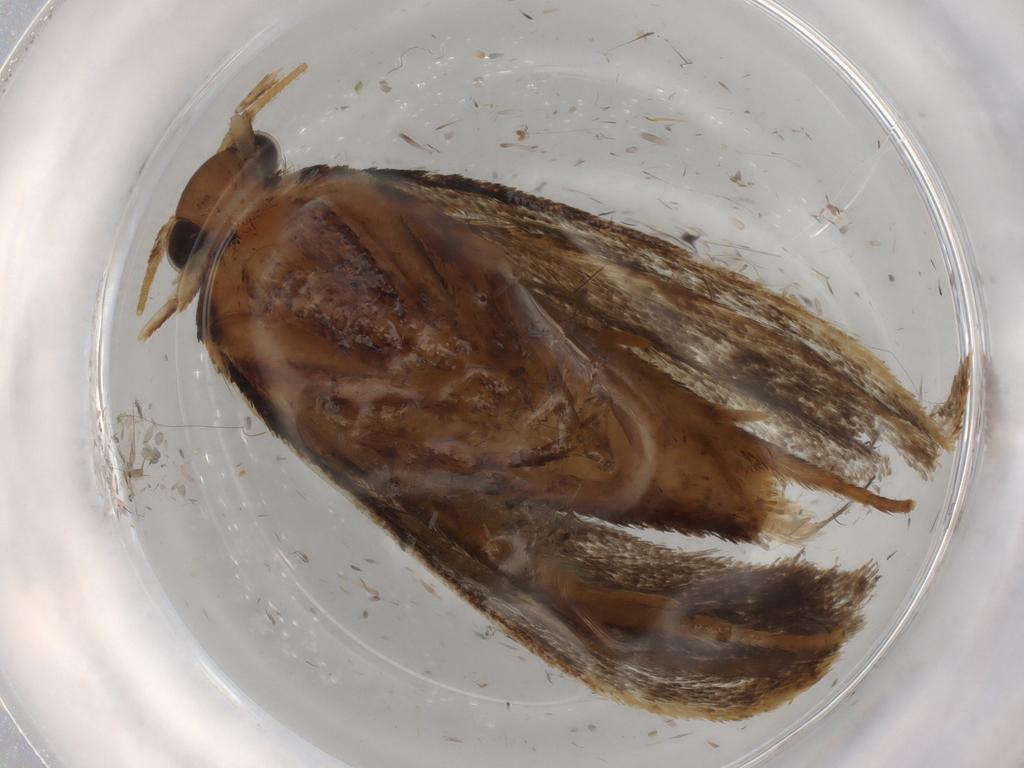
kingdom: Animalia
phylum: Arthropoda
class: Insecta
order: Lepidoptera
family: Tineidae
